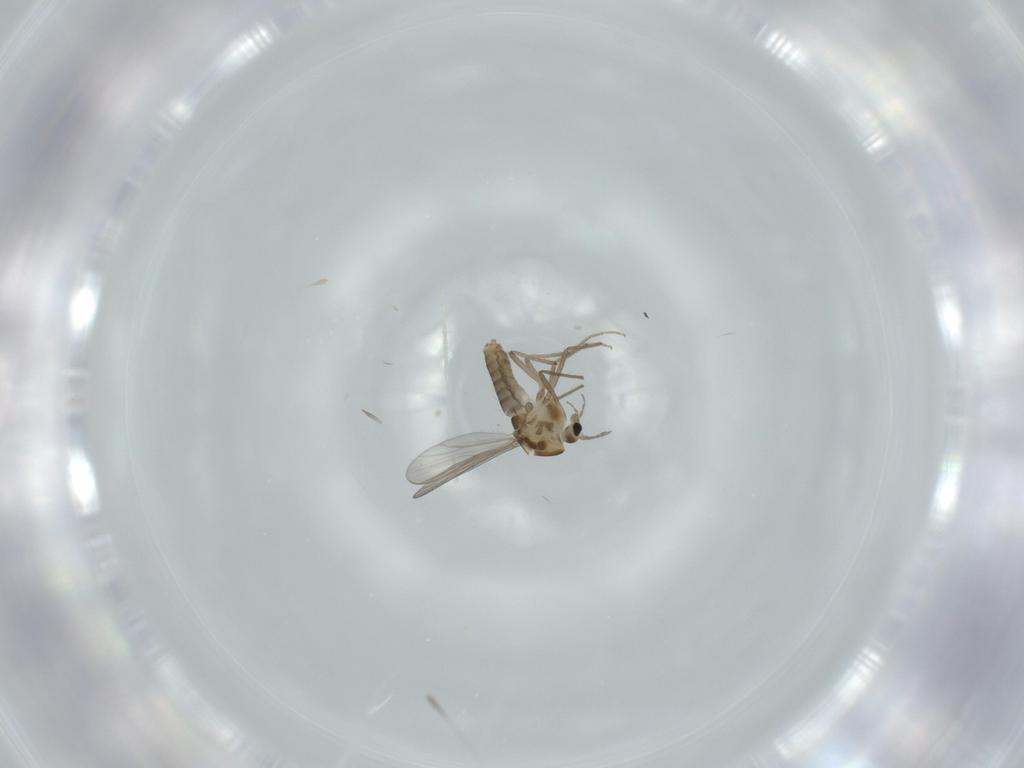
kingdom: Animalia
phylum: Arthropoda
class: Insecta
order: Diptera
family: Chironomidae
